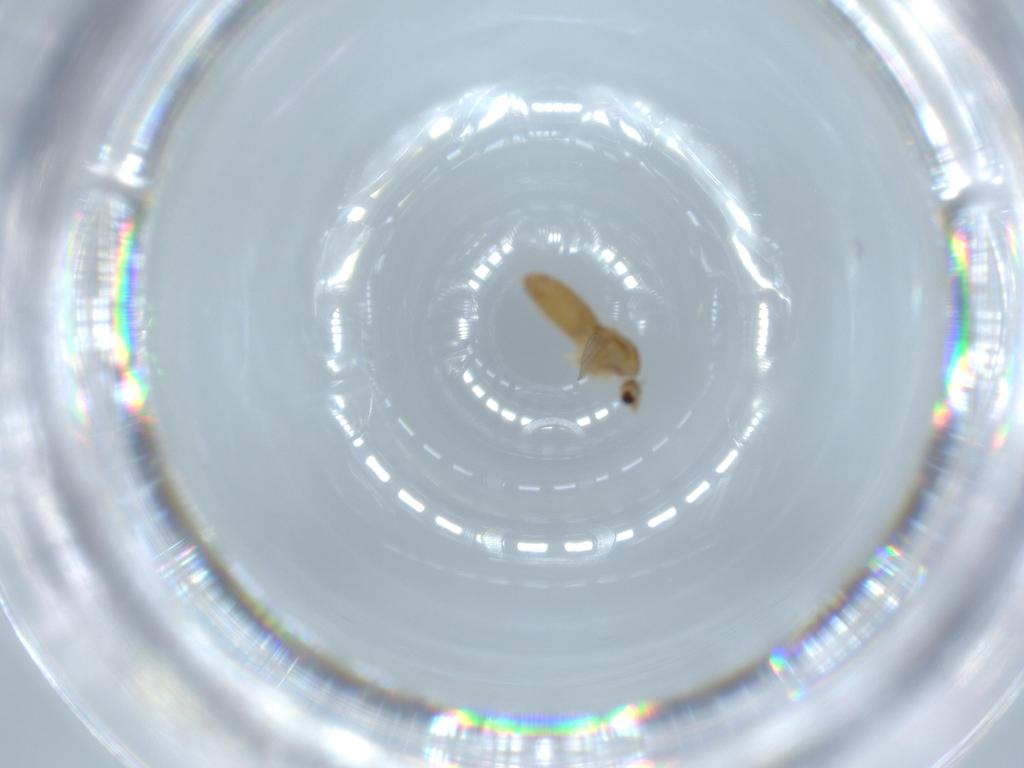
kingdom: Animalia
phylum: Arthropoda
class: Insecta
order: Diptera
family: Chironomidae
